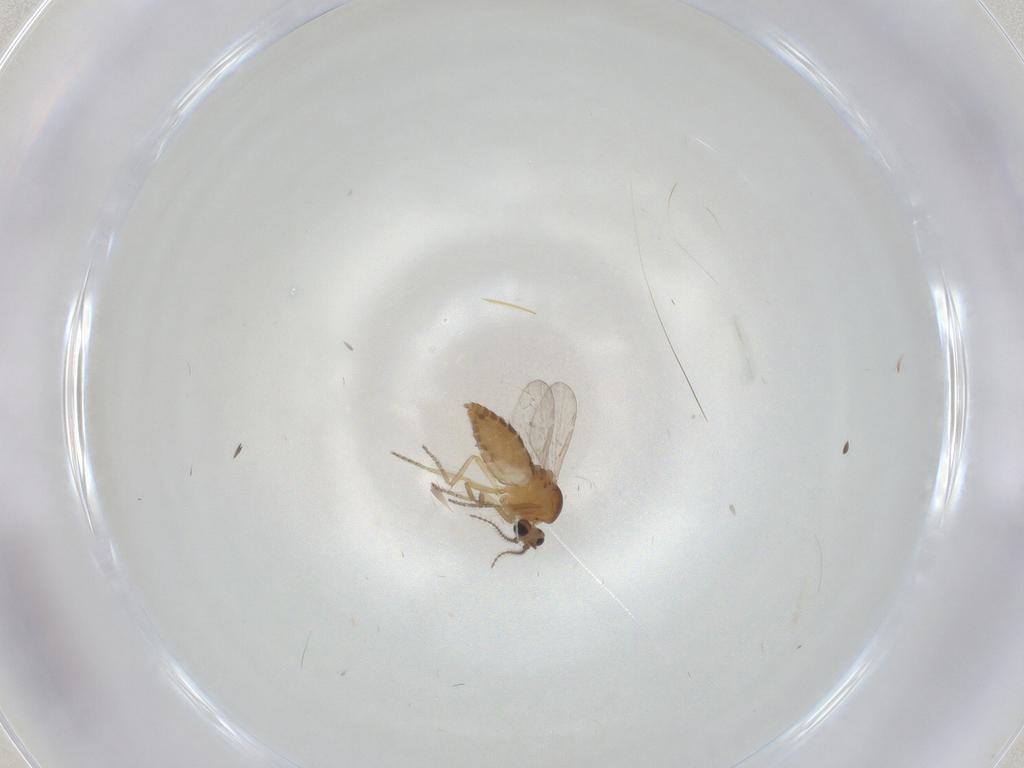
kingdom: Animalia
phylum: Arthropoda
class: Insecta
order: Diptera
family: Ceratopogonidae
